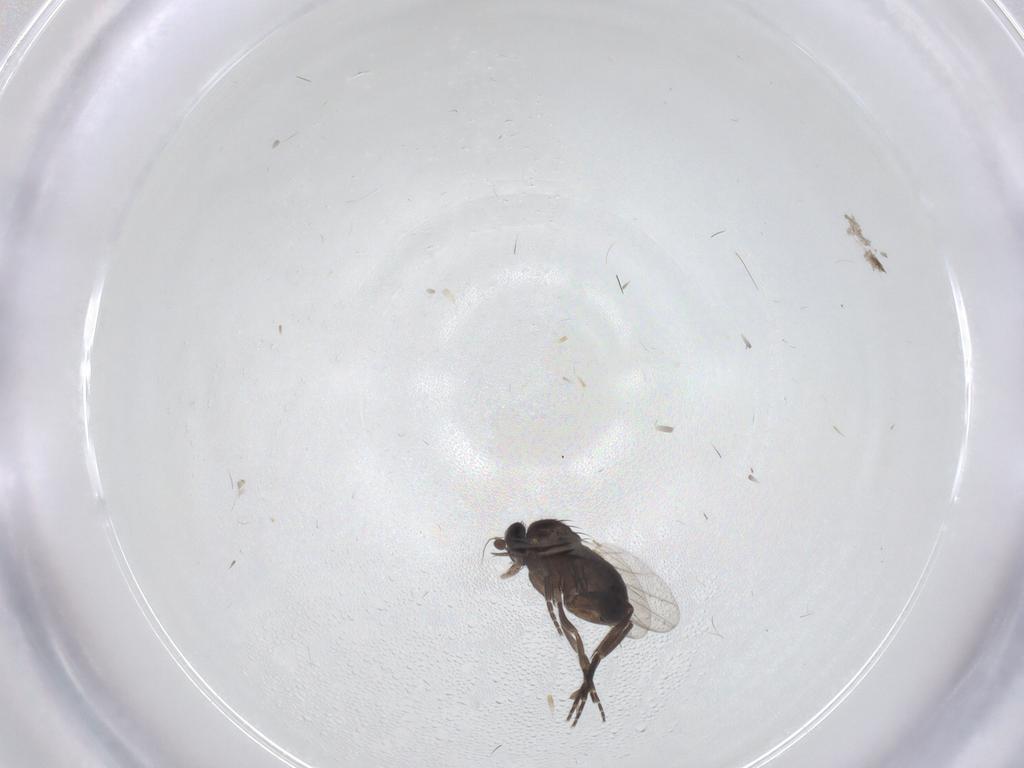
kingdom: Animalia
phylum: Arthropoda
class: Insecta
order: Diptera
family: Phoridae
